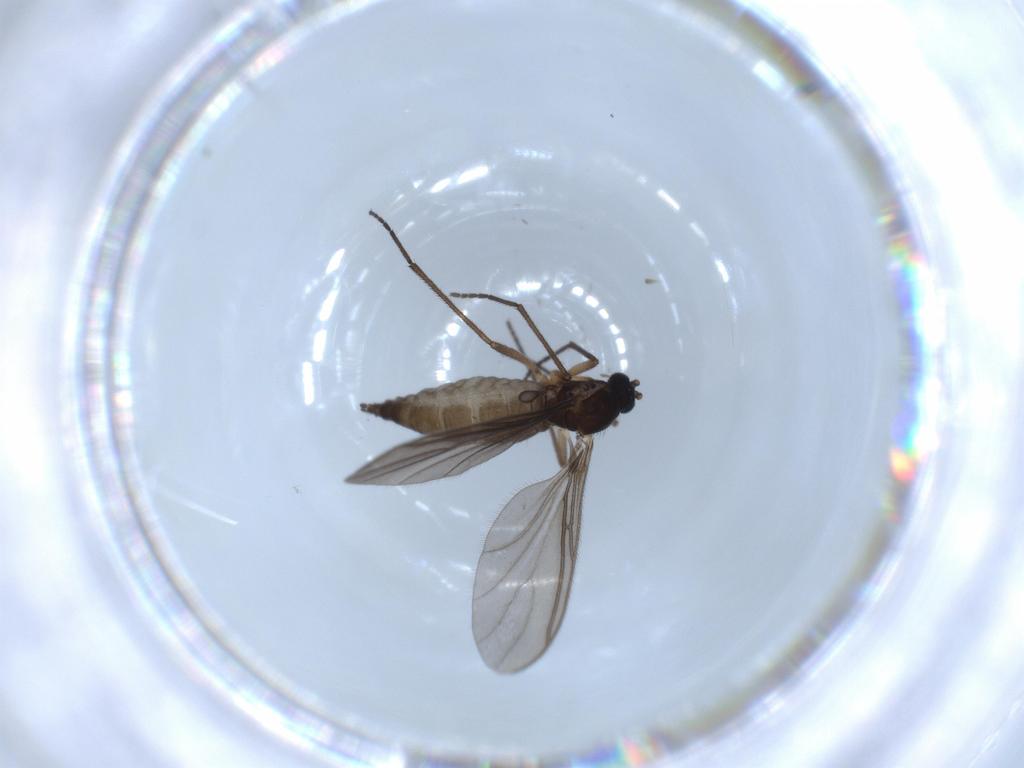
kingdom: Animalia
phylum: Arthropoda
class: Insecta
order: Diptera
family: Sciaridae
